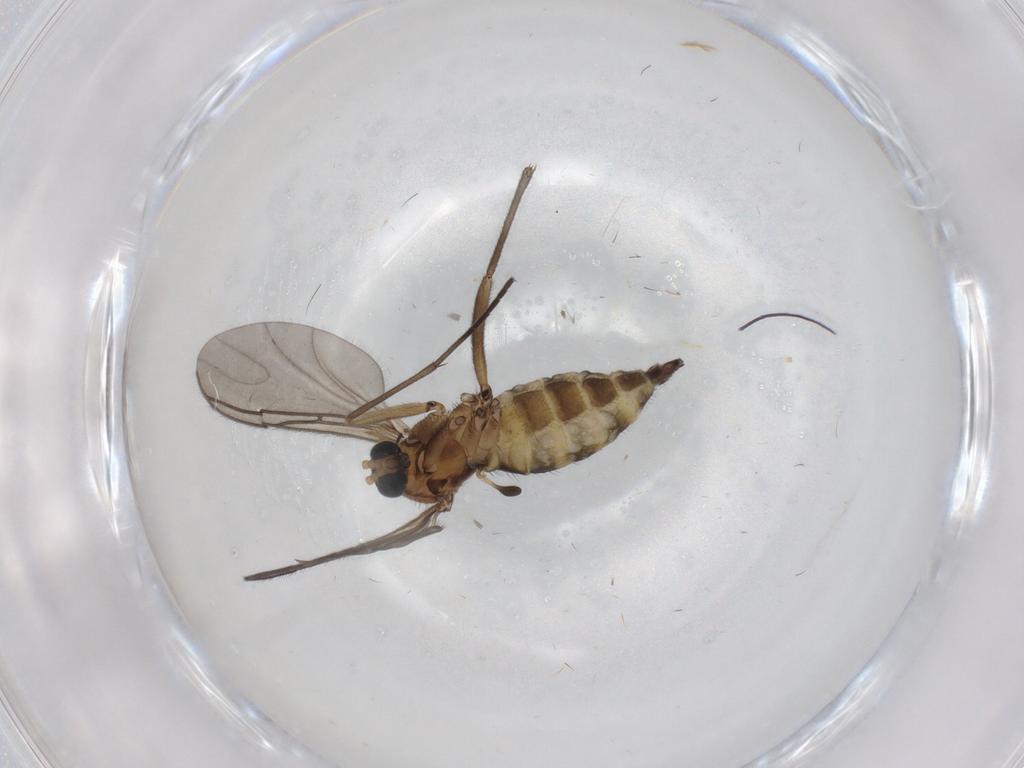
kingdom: Animalia
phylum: Arthropoda
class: Insecta
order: Diptera
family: Sciaridae
